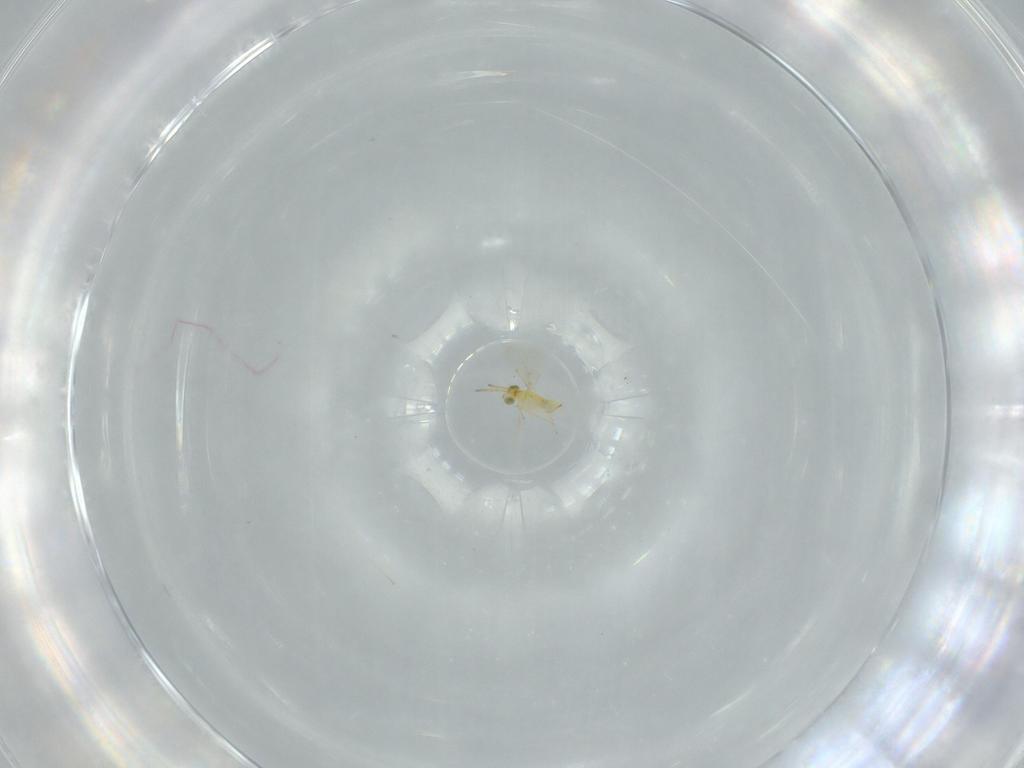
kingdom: Animalia
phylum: Arthropoda
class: Insecta
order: Hymenoptera
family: Aphelinidae
